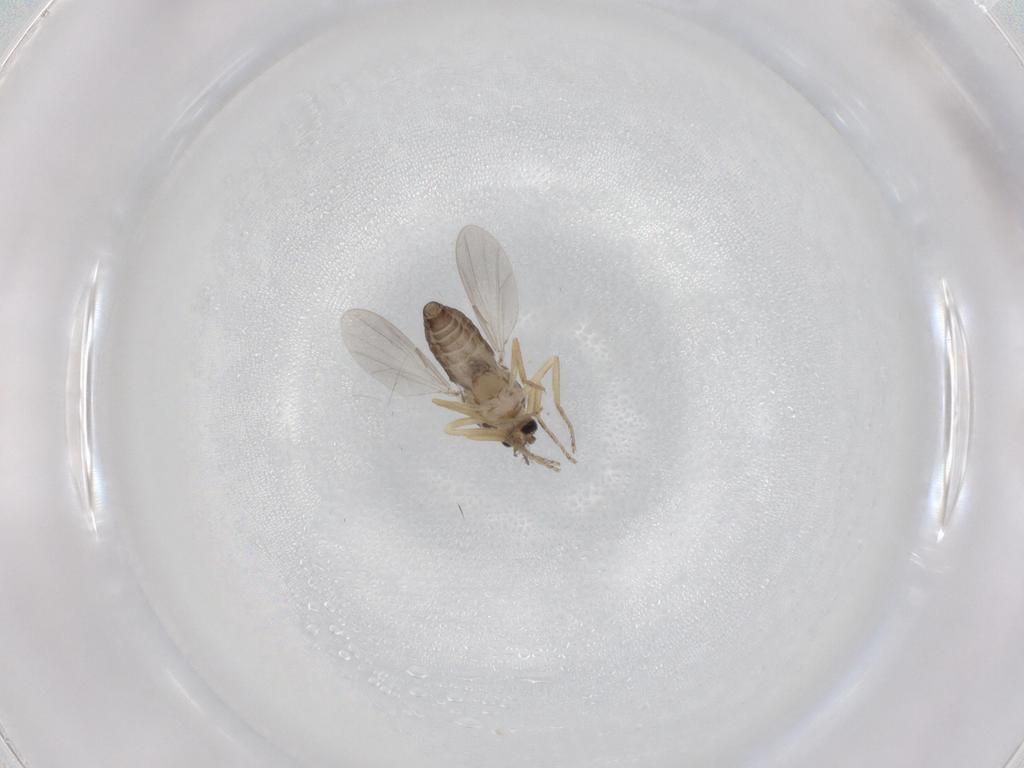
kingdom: Animalia
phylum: Arthropoda
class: Insecta
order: Diptera
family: Ceratopogonidae
